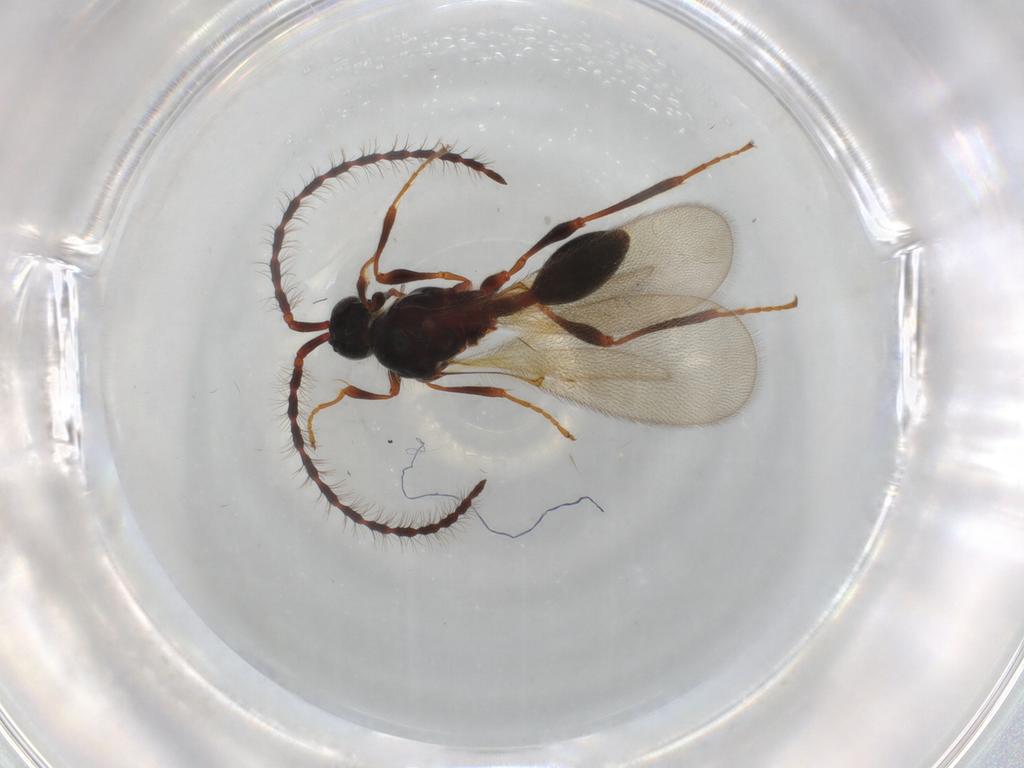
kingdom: Animalia
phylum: Arthropoda
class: Insecta
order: Hymenoptera
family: Diapriidae
